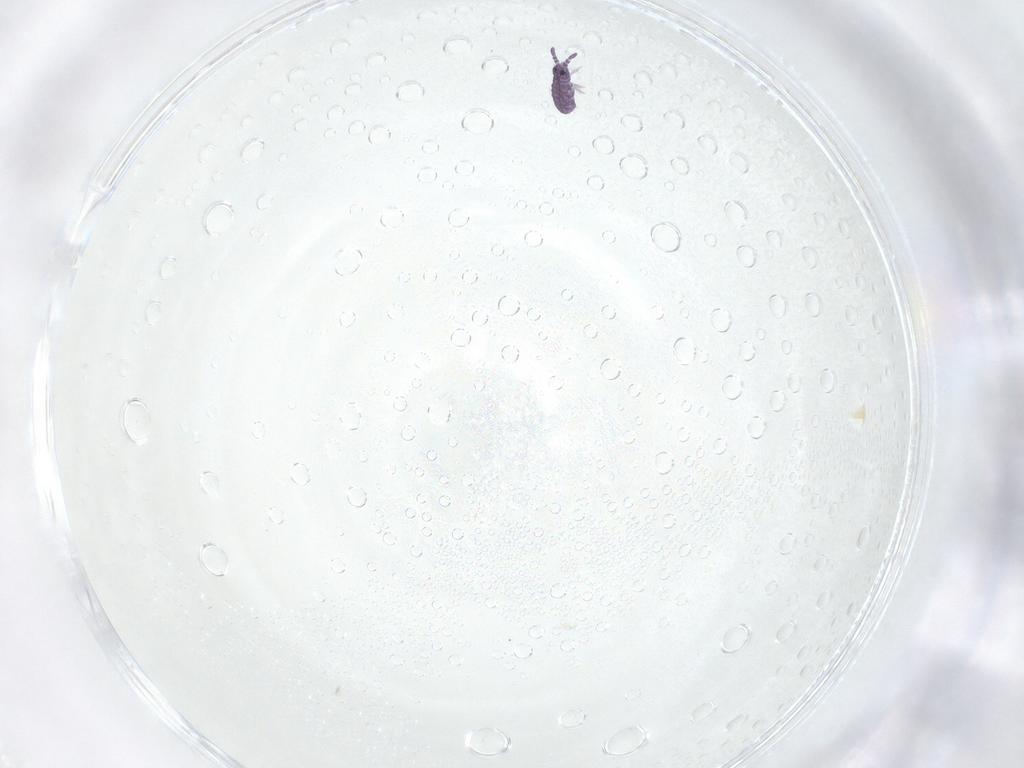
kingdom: Animalia
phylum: Arthropoda
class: Collembola
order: Poduromorpha
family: Neanuridae
